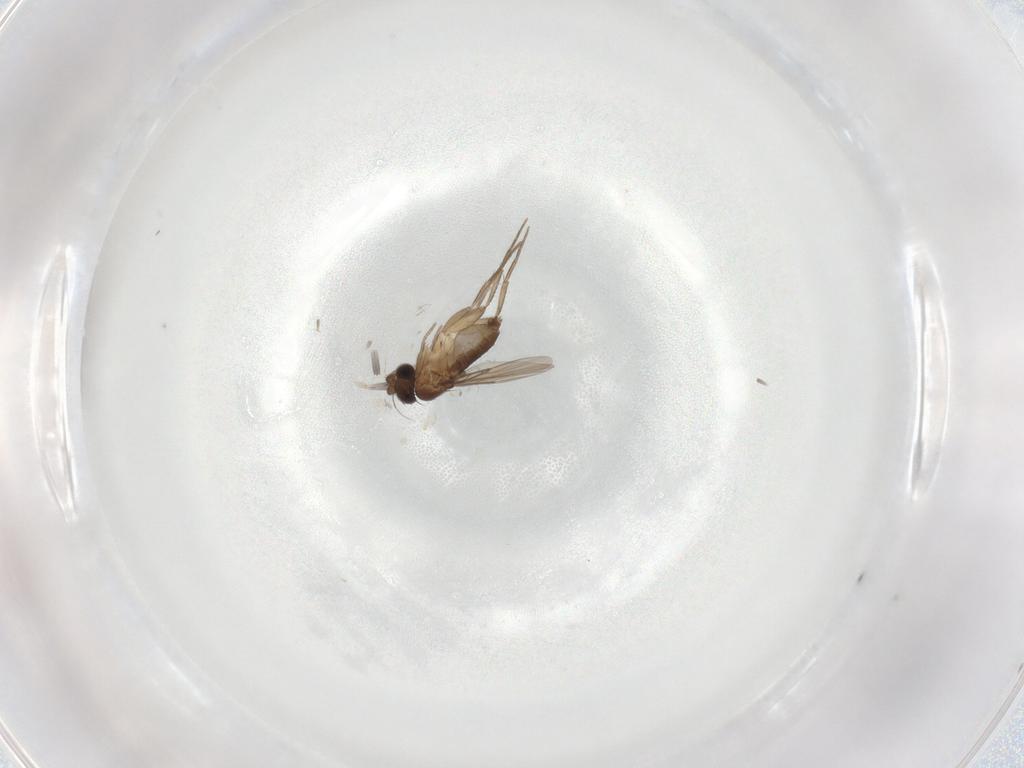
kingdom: Animalia
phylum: Arthropoda
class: Insecta
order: Diptera
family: Phoridae
